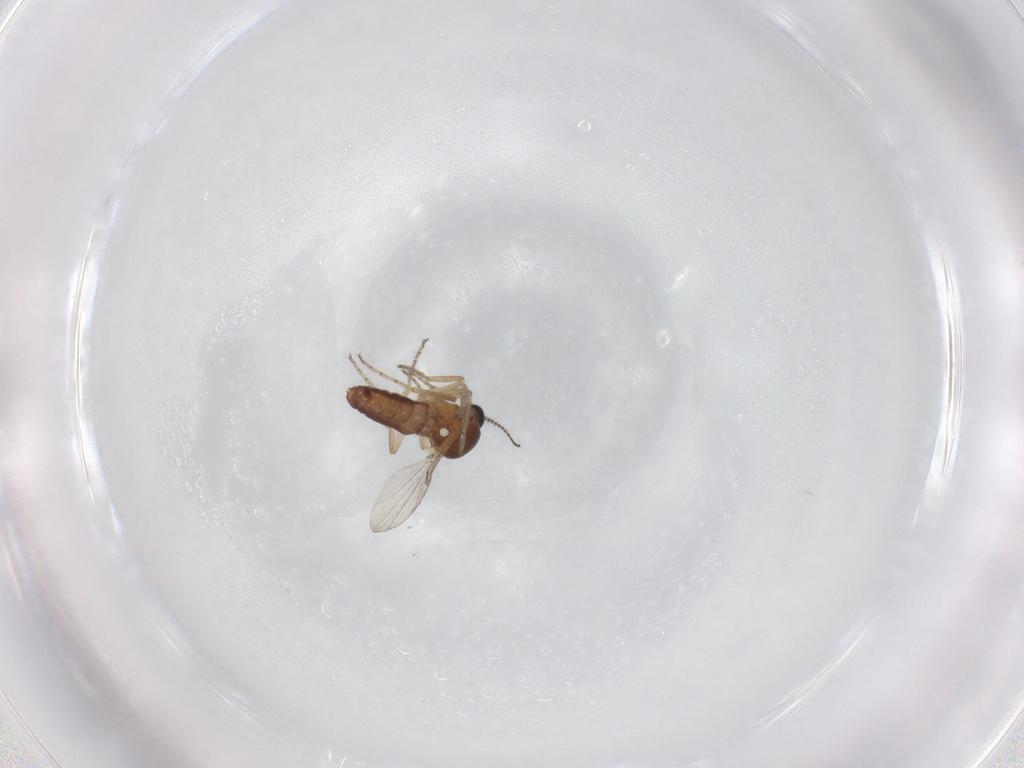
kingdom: Animalia
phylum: Arthropoda
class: Insecta
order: Diptera
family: Ceratopogonidae
